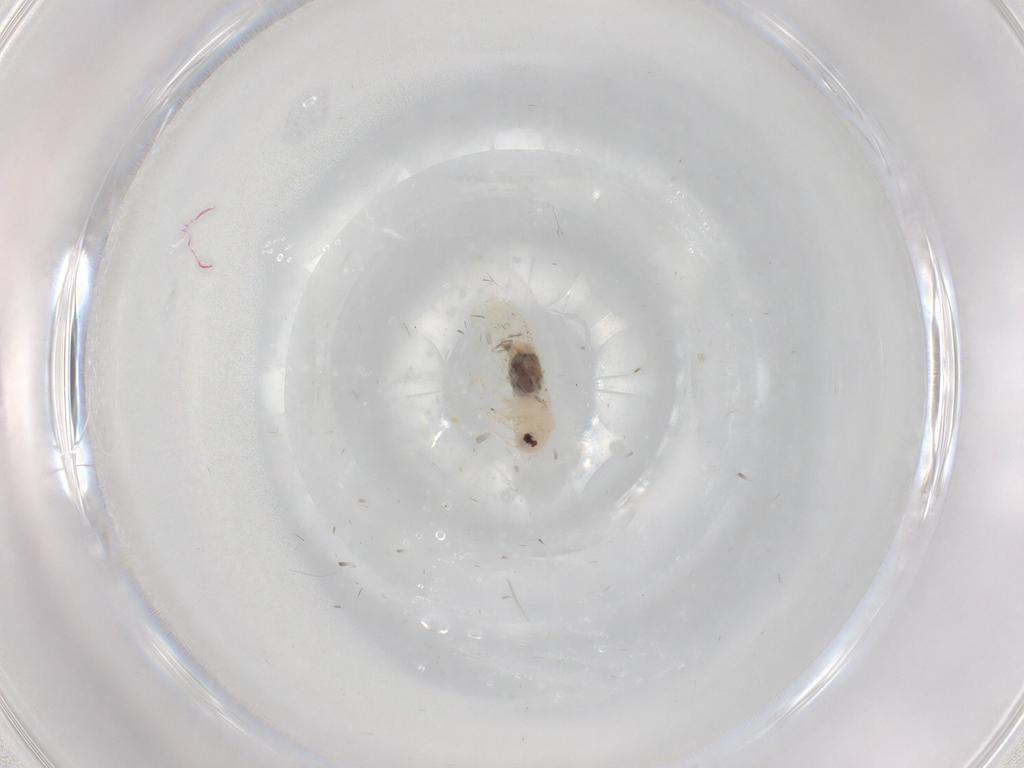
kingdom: Animalia
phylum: Arthropoda
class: Insecta
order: Hemiptera
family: Aleyrodidae
